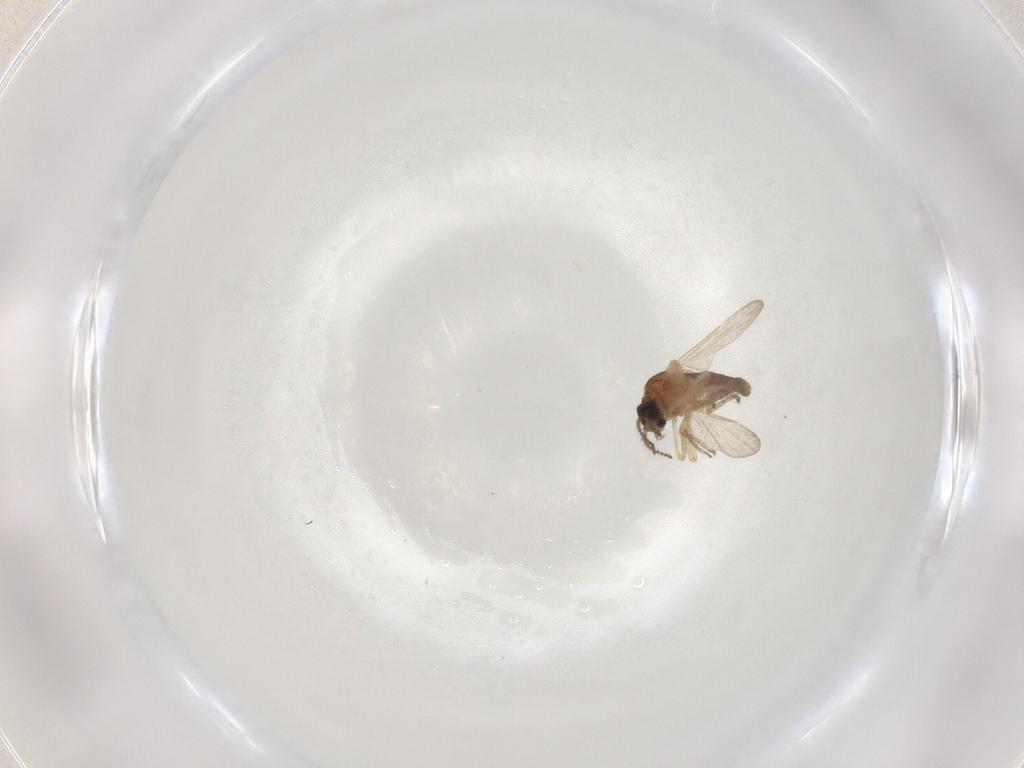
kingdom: Animalia
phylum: Arthropoda
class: Insecta
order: Diptera
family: Ceratopogonidae
